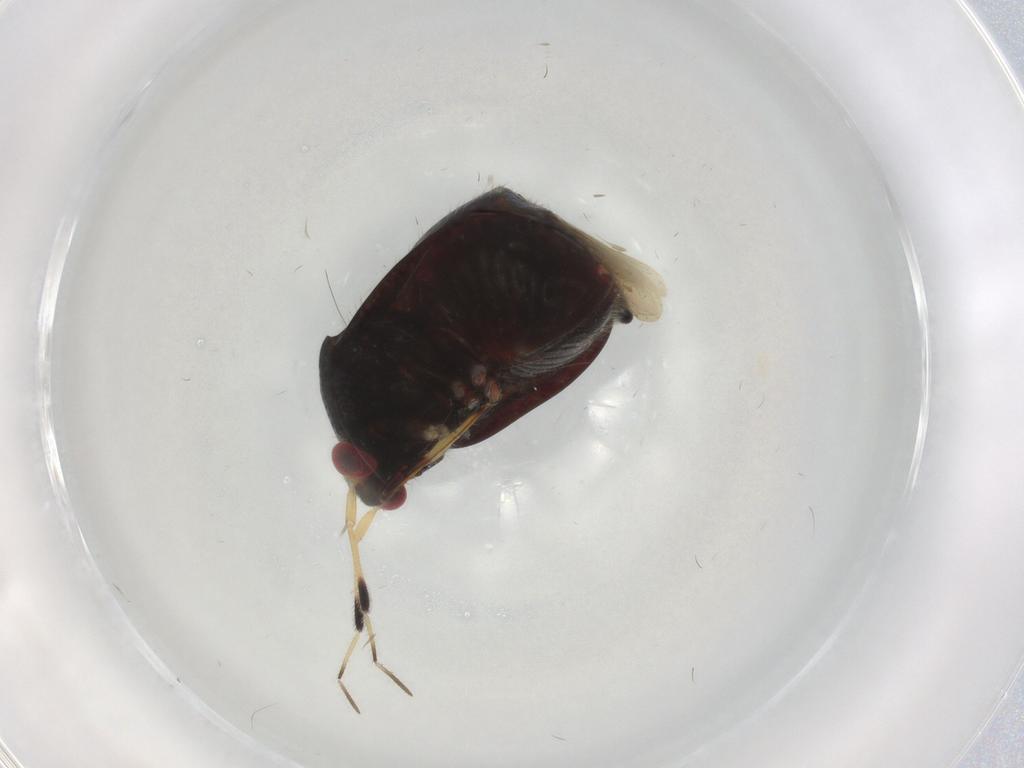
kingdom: Animalia
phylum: Arthropoda
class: Insecta
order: Hemiptera
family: Miridae
